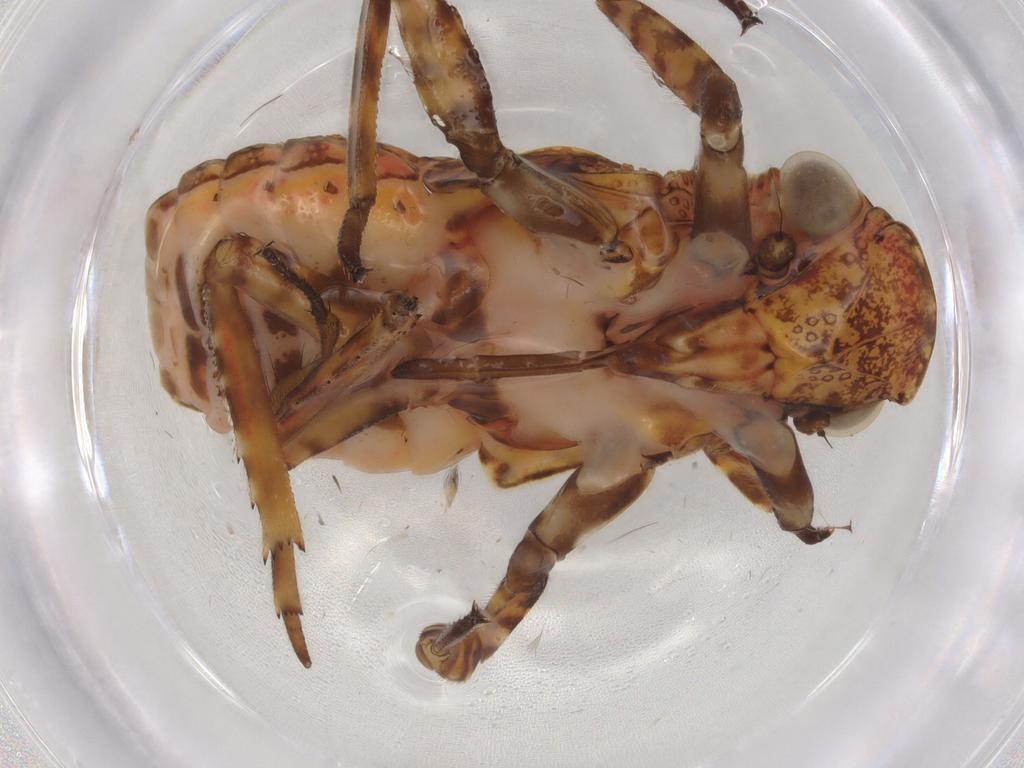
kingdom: Animalia
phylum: Arthropoda
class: Insecta
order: Hemiptera
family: Fulgoridae
